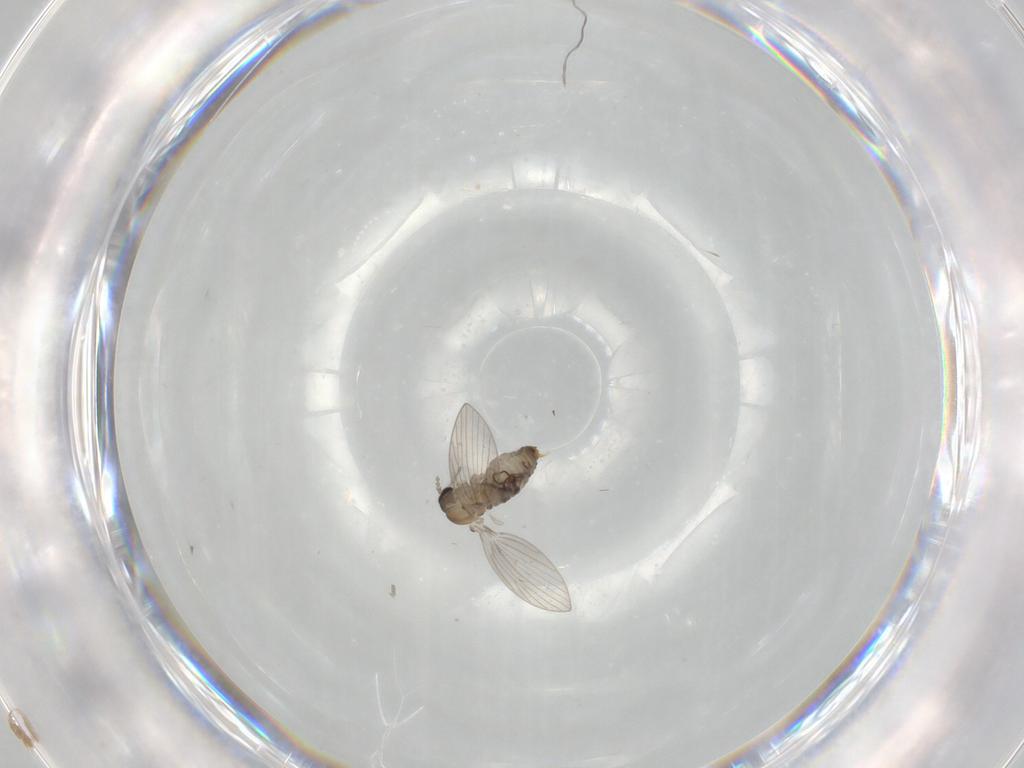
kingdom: Animalia
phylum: Arthropoda
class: Insecta
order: Diptera
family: Psychodidae
